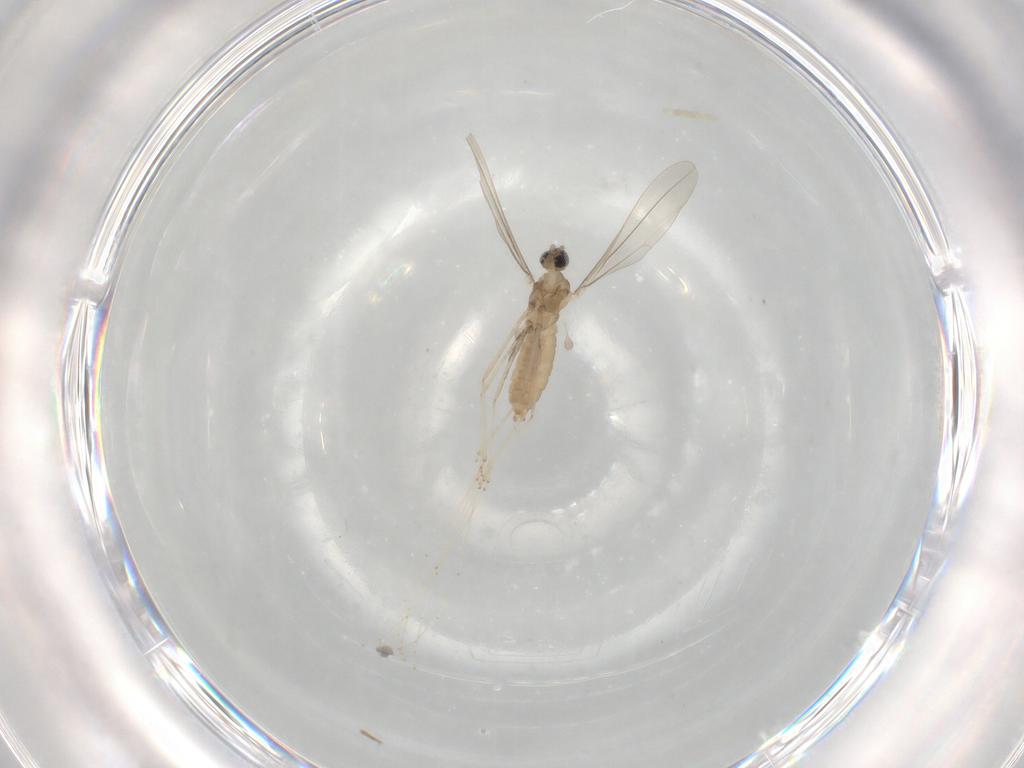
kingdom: Animalia
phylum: Arthropoda
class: Insecta
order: Diptera
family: Cecidomyiidae
